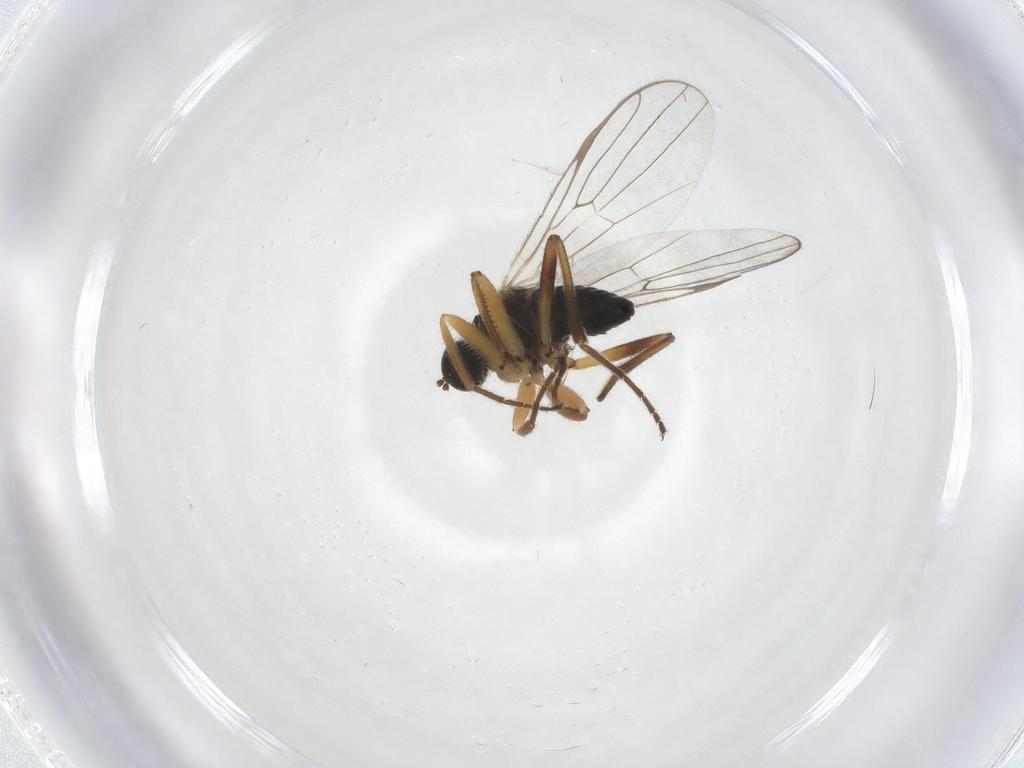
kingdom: Animalia
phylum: Arthropoda
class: Insecta
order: Diptera
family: Hybotidae
